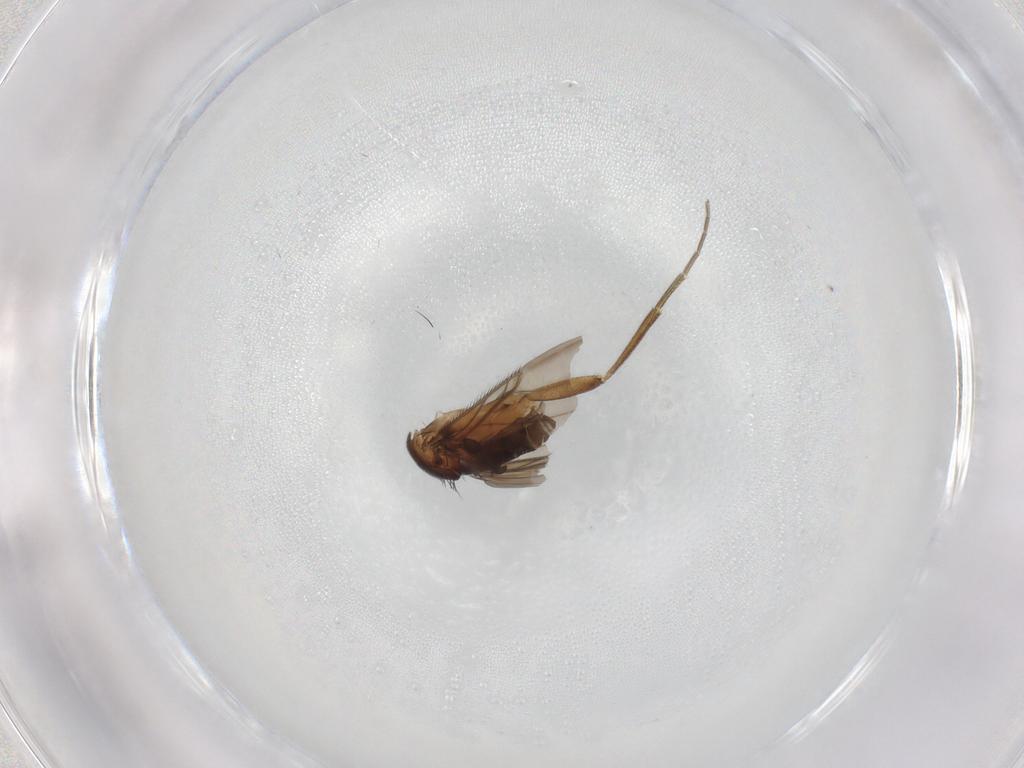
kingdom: Animalia
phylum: Arthropoda
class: Insecta
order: Diptera
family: Phoridae
